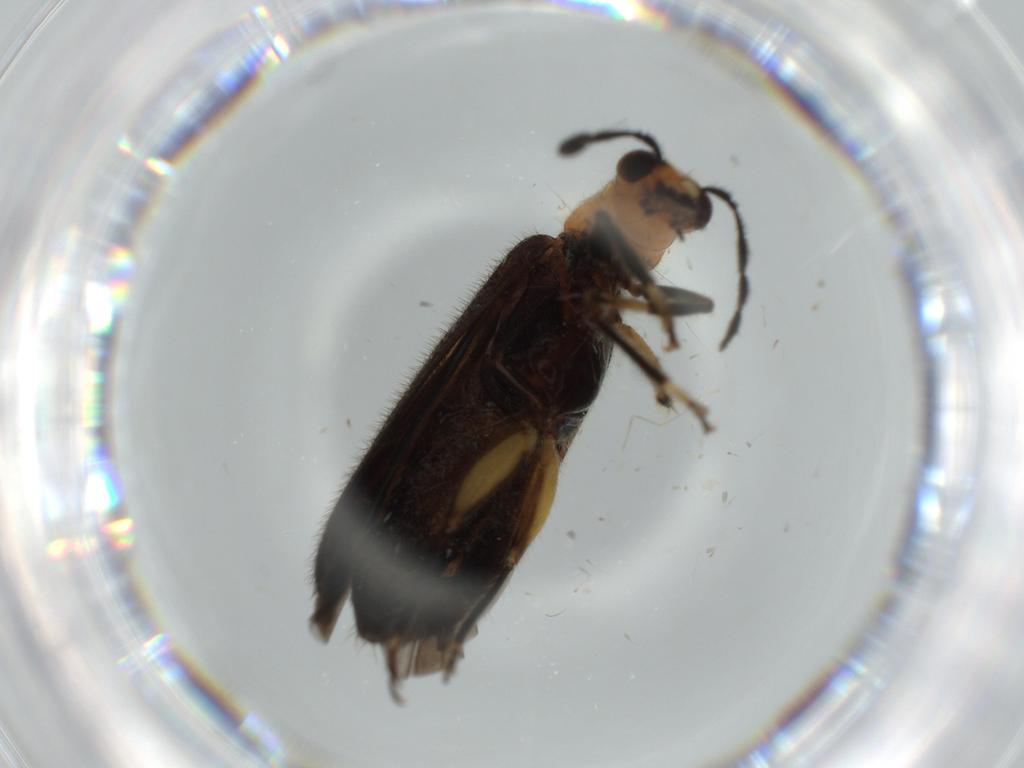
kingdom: Animalia
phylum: Arthropoda
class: Insecta
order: Coleoptera
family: Cleridae
